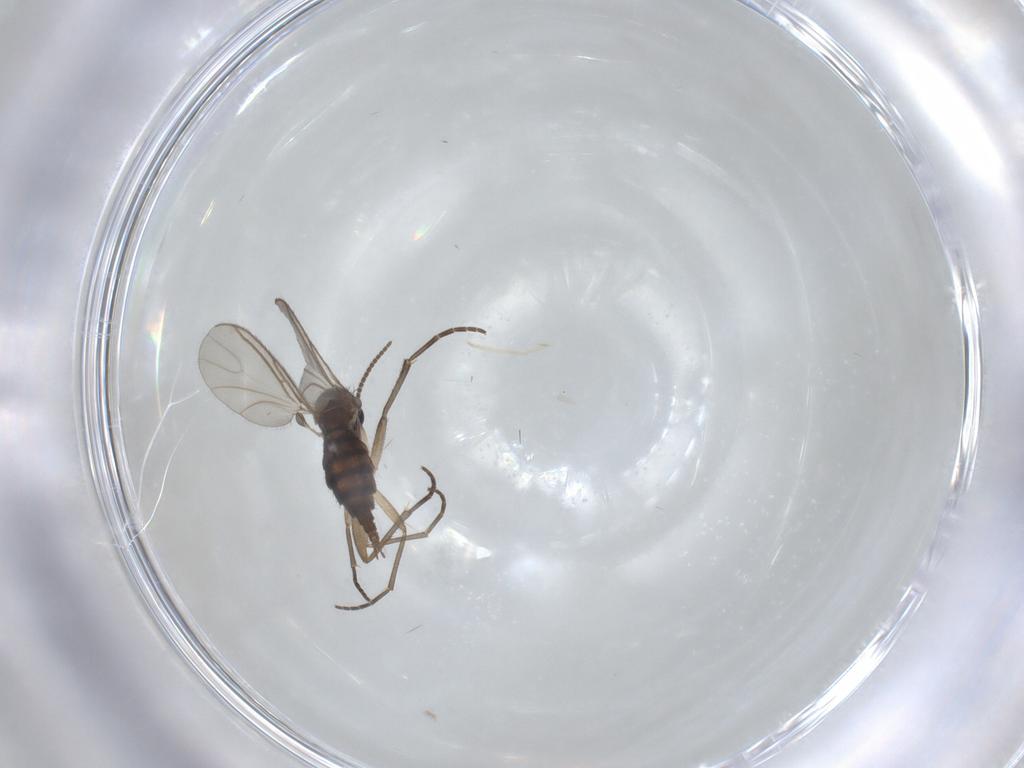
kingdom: Animalia
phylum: Arthropoda
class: Insecta
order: Diptera
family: Sciaridae
